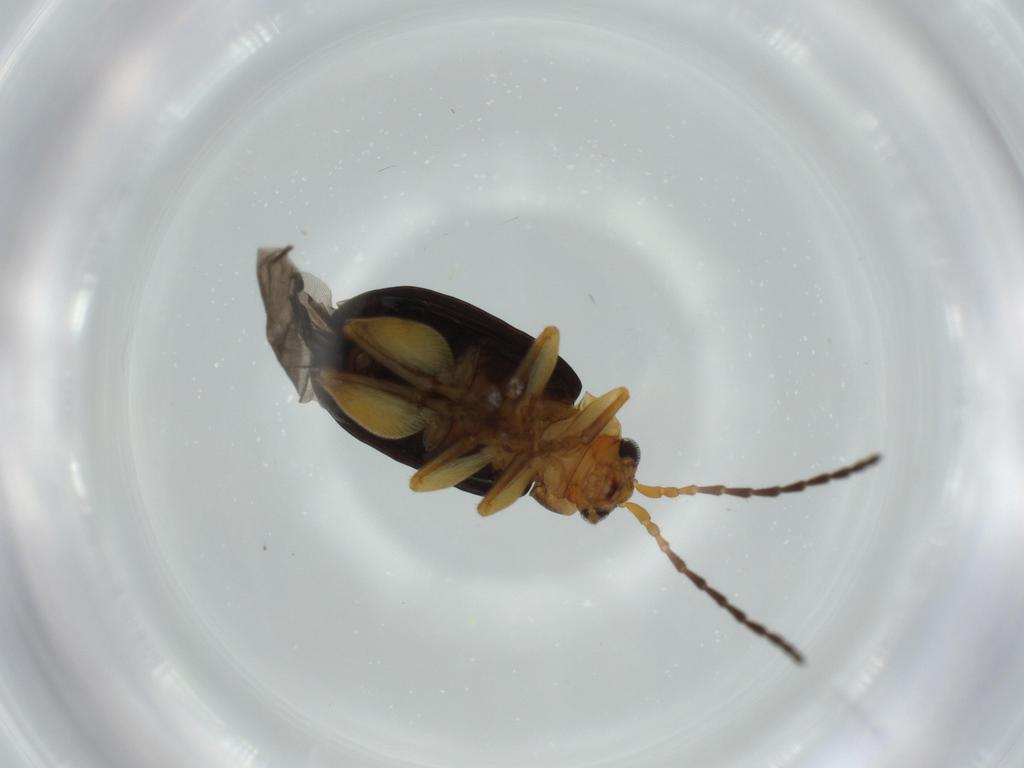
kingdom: Animalia
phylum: Arthropoda
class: Insecta
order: Coleoptera
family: Chrysomelidae
